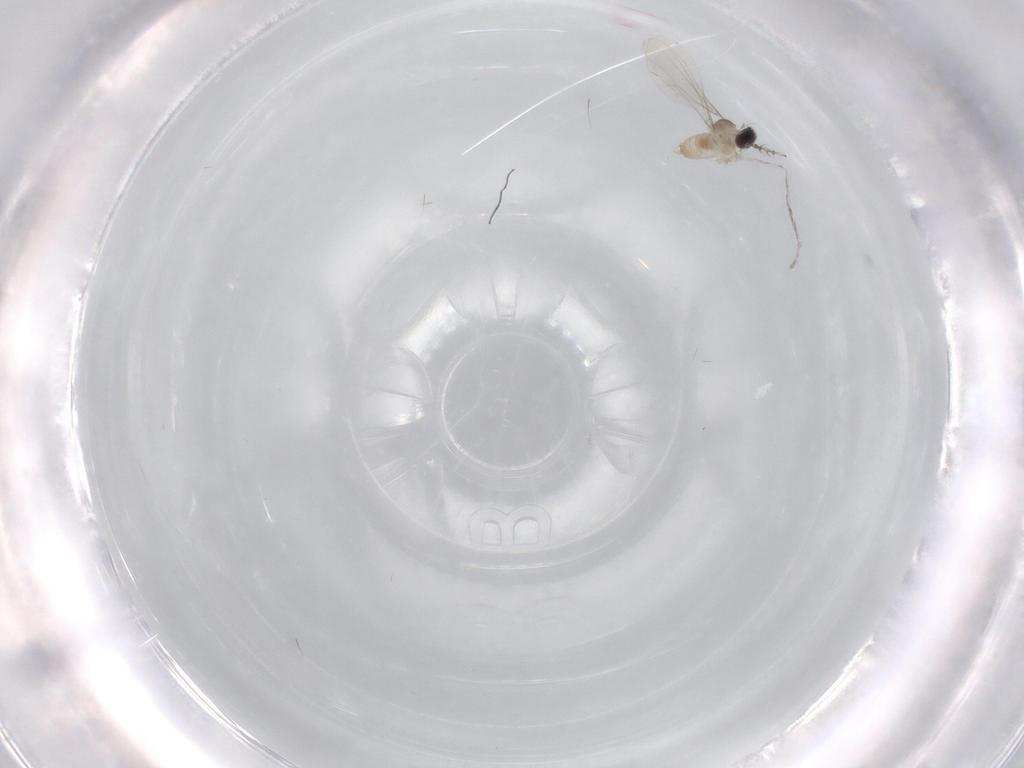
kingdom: Animalia
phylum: Arthropoda
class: Insecta
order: Diptera
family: Cecidomyiidae
